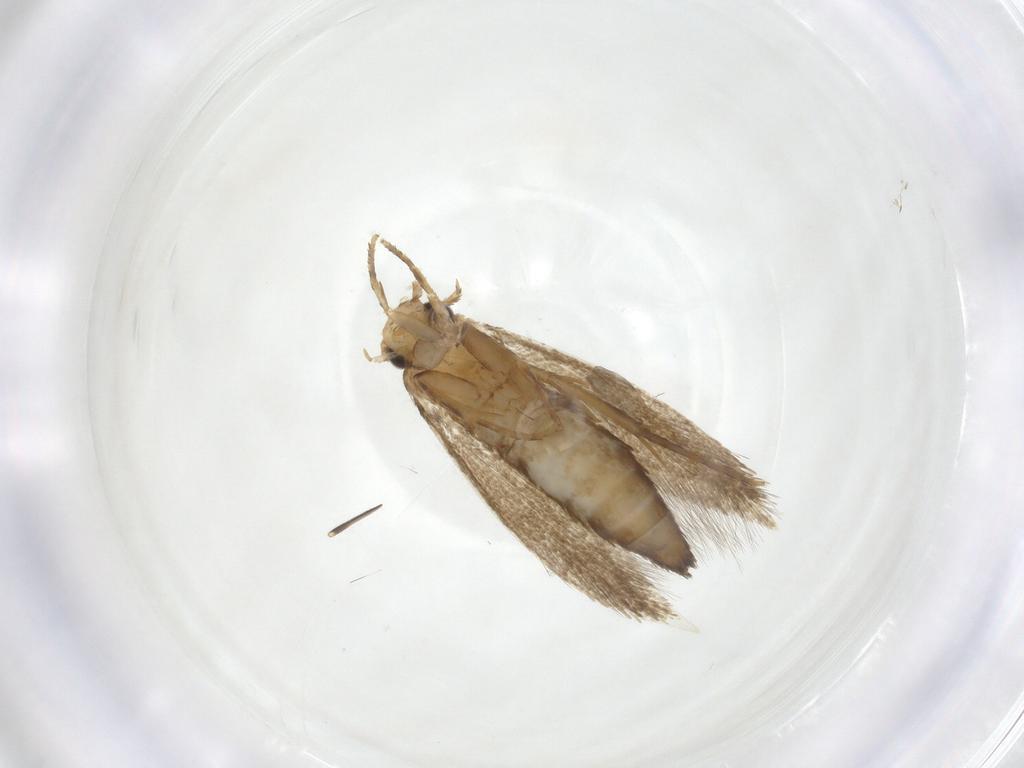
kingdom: Animalia
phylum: Arthropoda
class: Insecta
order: Lepidoptera
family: Tineidae
